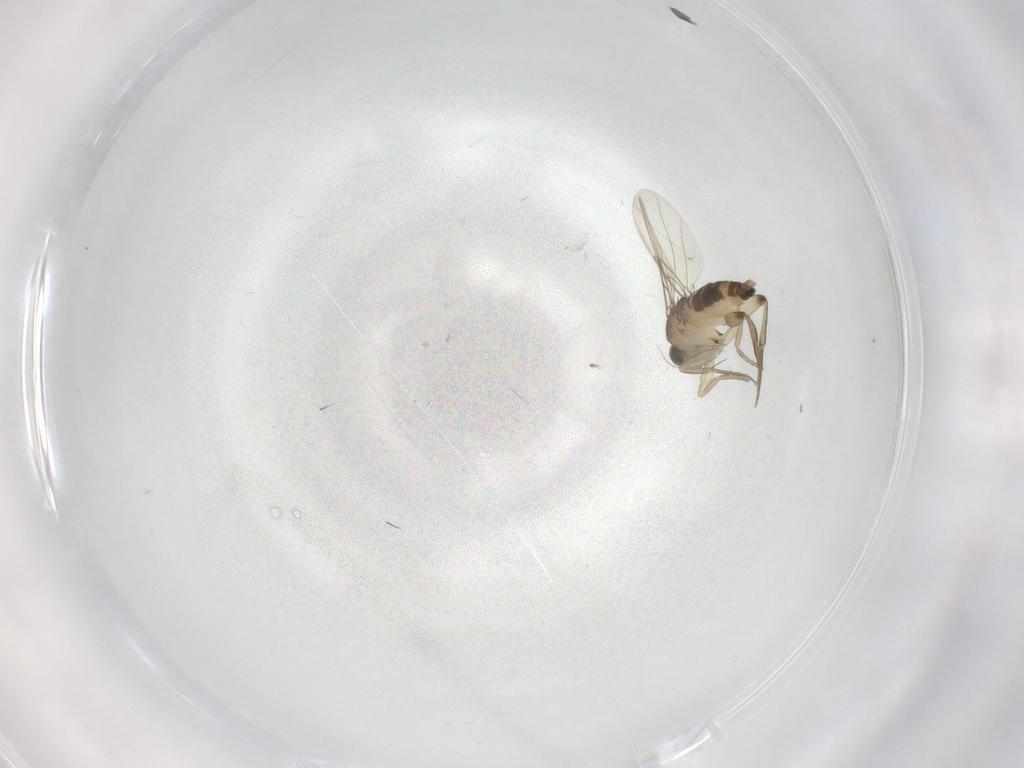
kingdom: Animalia
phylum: Arthropoda
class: Insecta
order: Diptera
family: Phoridae
